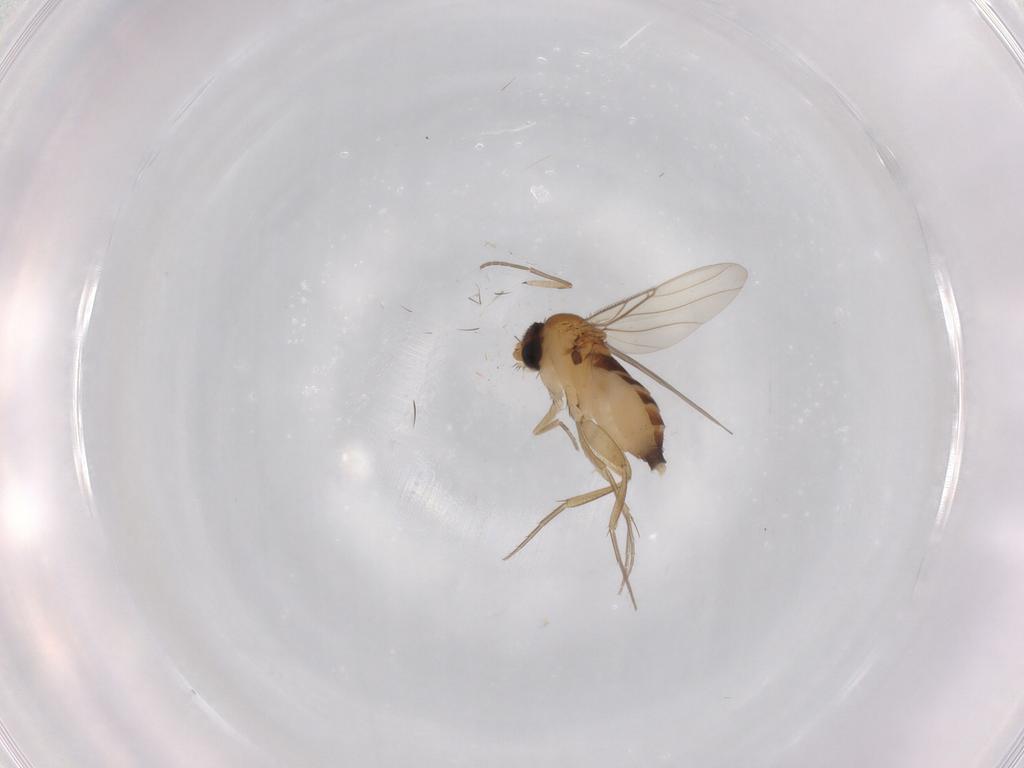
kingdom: Animalia
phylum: Arthropoda
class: Insecta
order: Diptera
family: Phoridae
